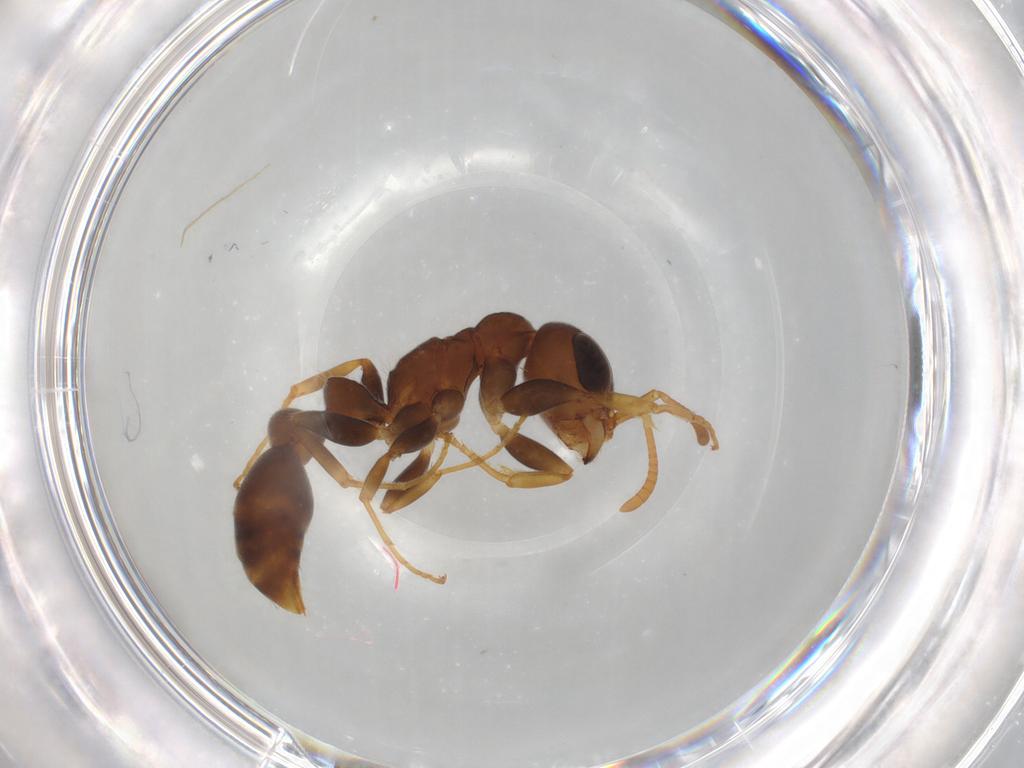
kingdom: Animalia
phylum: Arthropoda
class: Insecta
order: Hymenoptera
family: Formicidae
